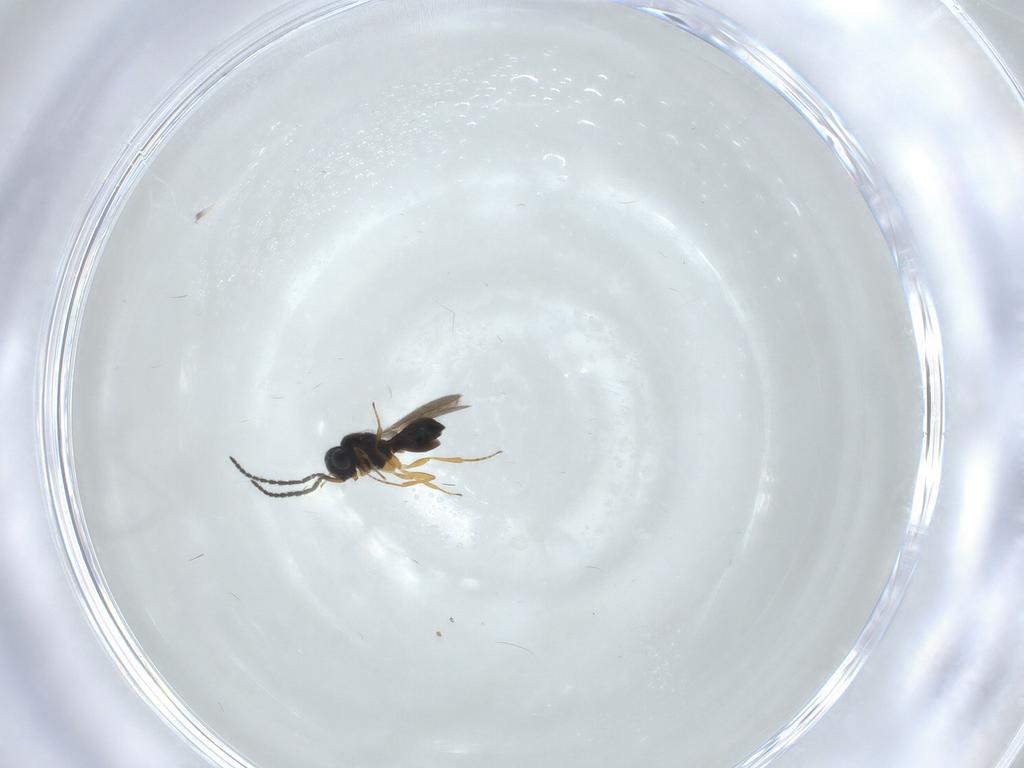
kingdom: Animalia
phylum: Arthropoda
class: Insecta
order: Hymenoptera
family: Scelionidae
